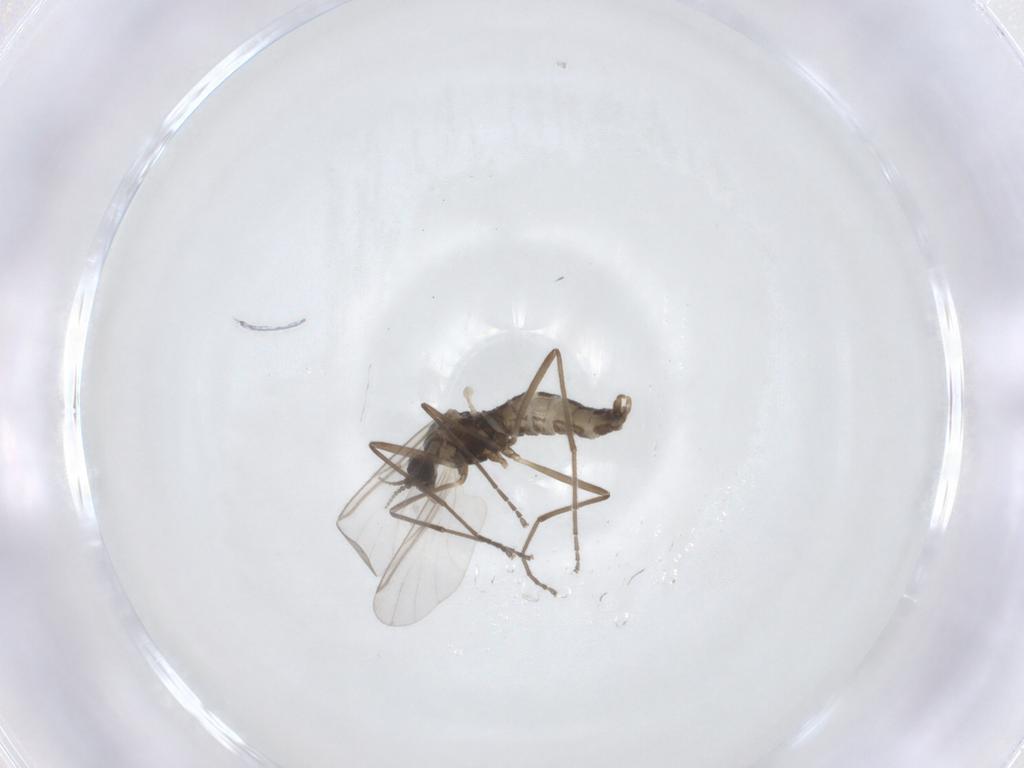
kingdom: Animalia
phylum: Arthropoda
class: Insecta
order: Diptera
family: Cecidomyiidae
